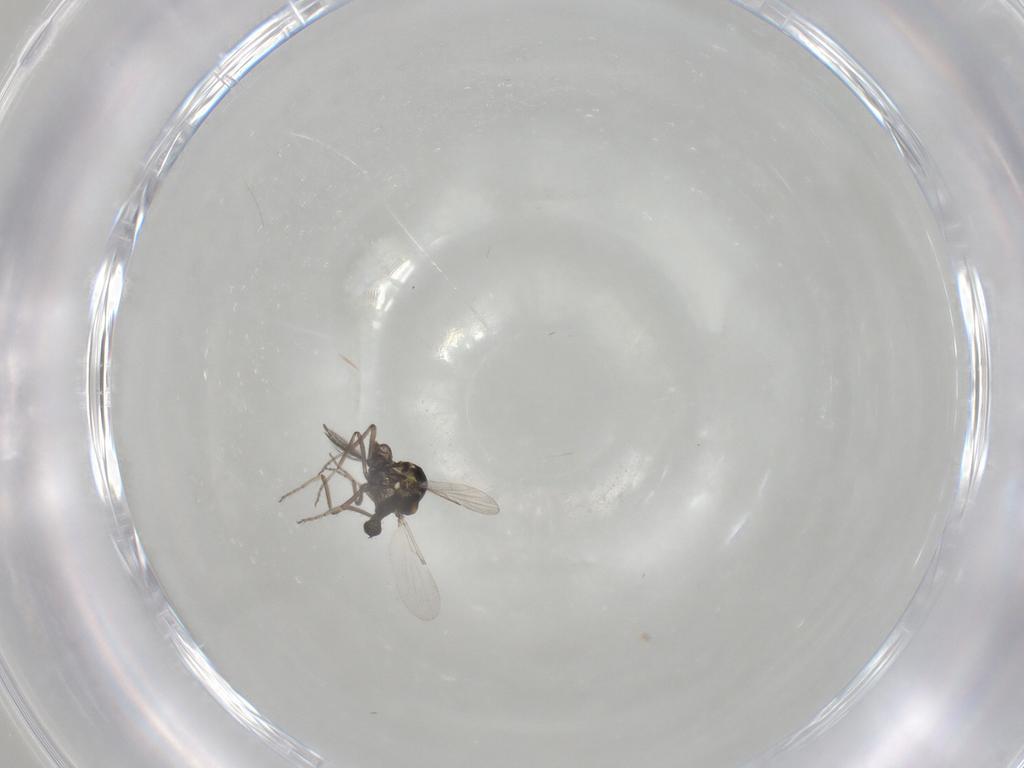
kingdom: Animalia
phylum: Arthropoda
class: Insecta
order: Diptera
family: Ceratopogonidae
